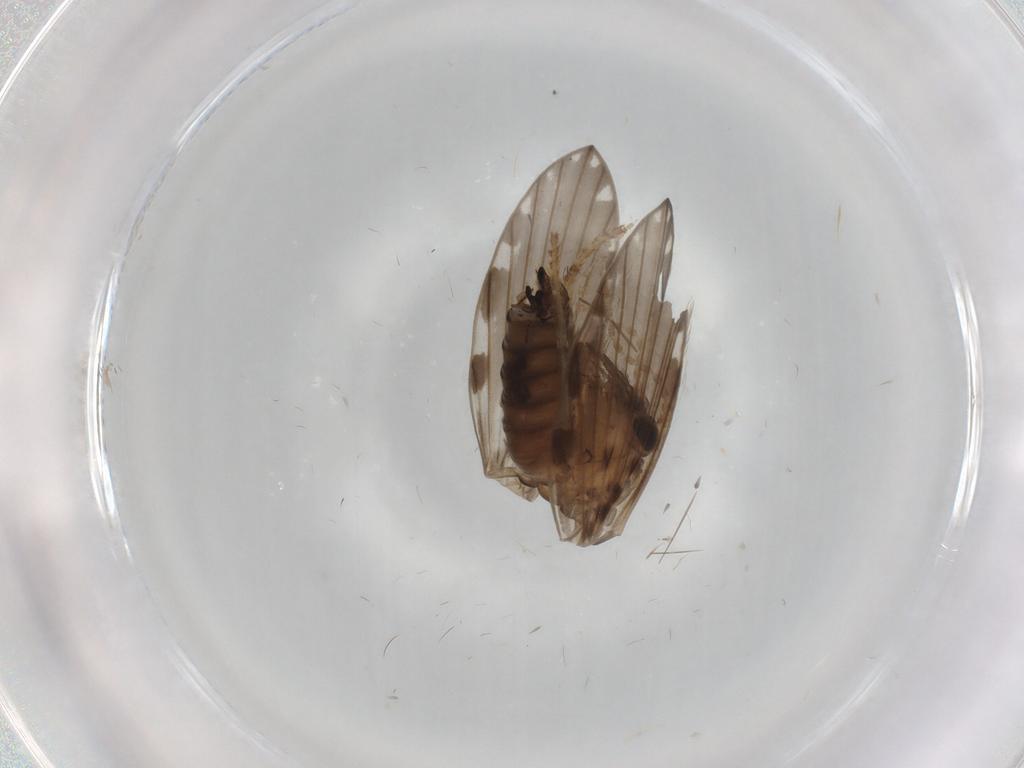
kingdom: Animalia
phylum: Arthropoda
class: Insecta
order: Diptera
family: Psychodidae
